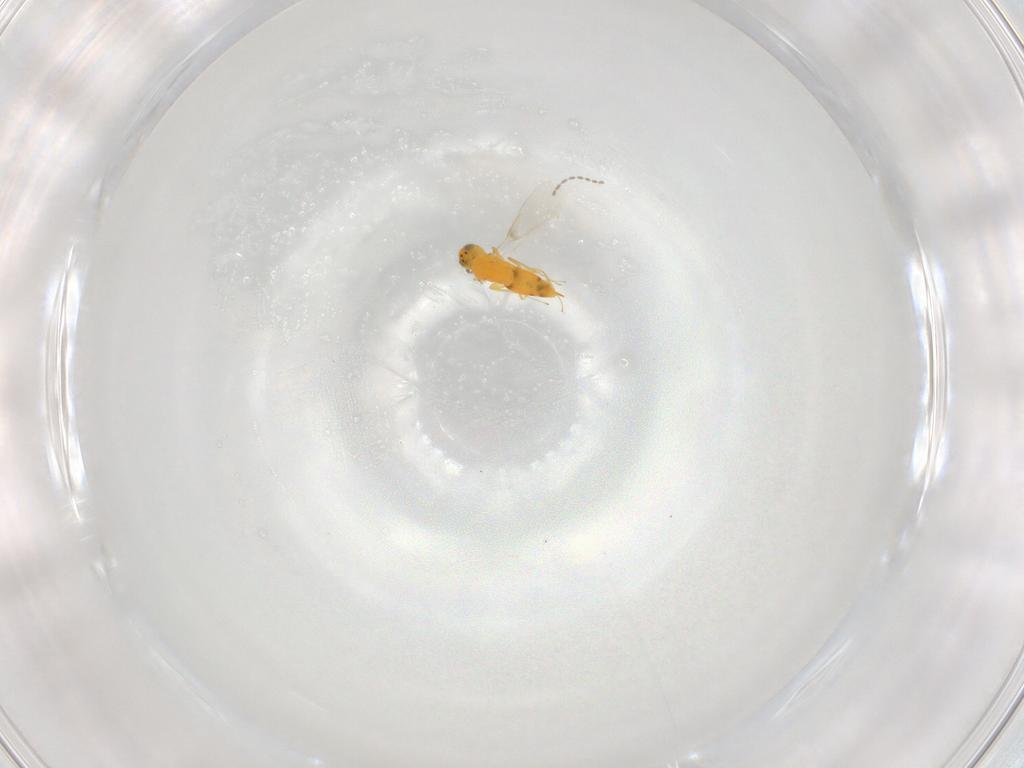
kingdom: Animalia
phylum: Arthropoda
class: Insecta
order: Hymenoptera
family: Aphelinidae
